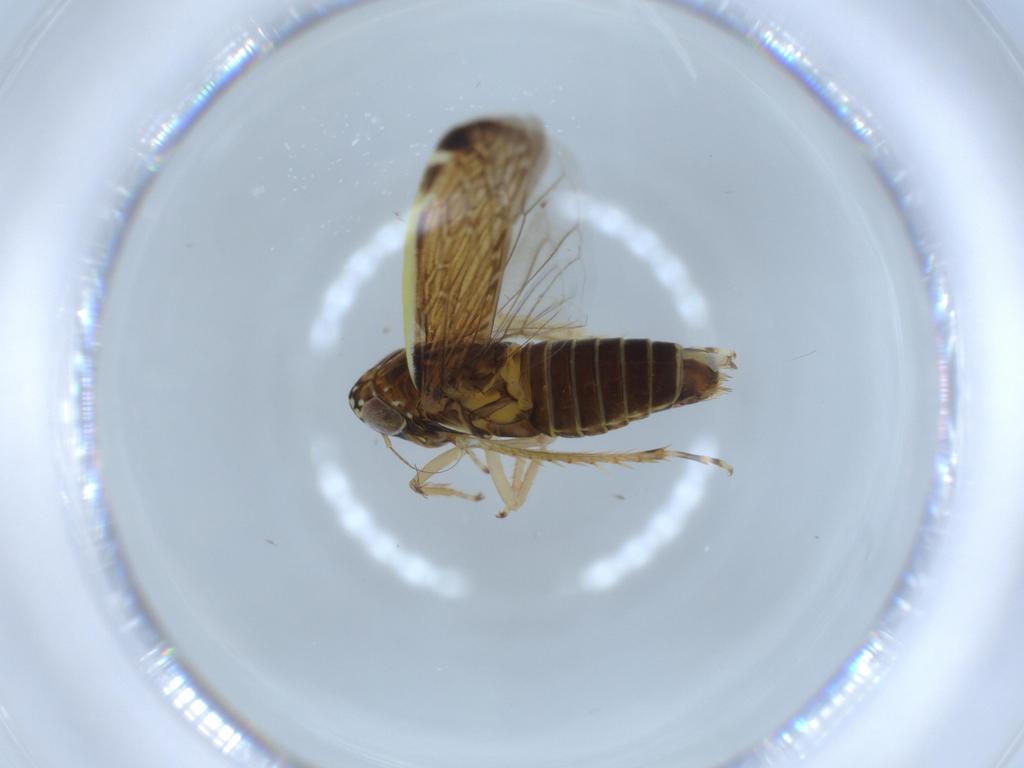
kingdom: Animalia
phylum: Arthropoda
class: Insecta
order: Hemiptera
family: Cicadellidae
